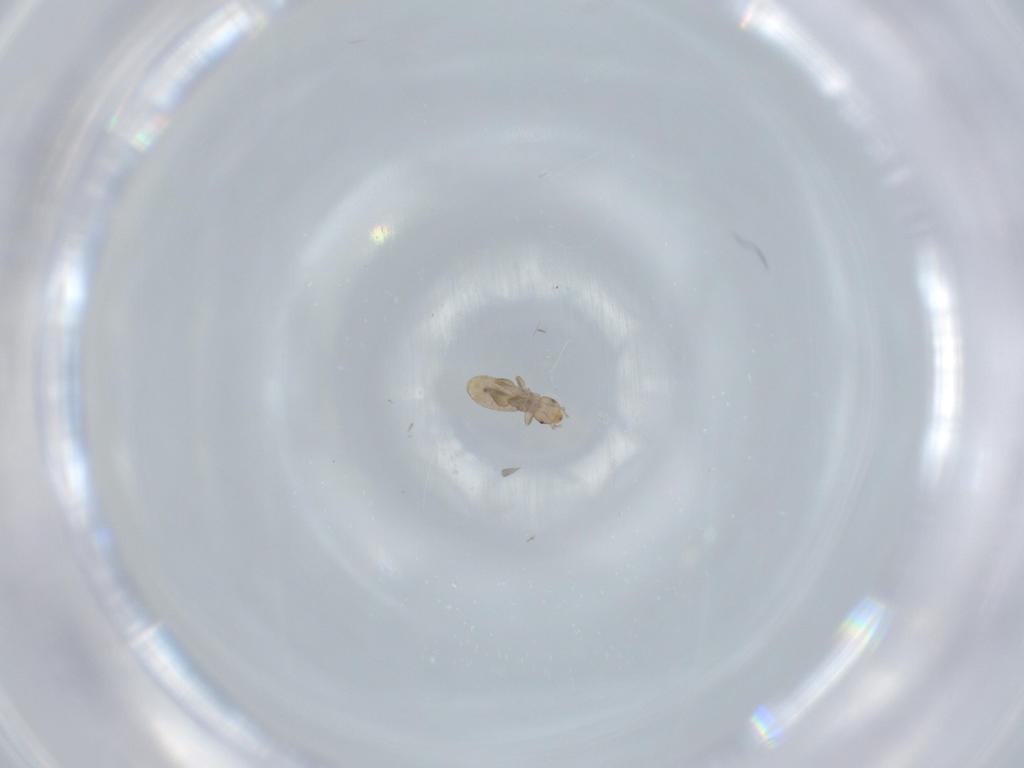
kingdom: Animalia
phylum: Arthropoda
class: Insecta
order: Psocodea
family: Liposcelididae
